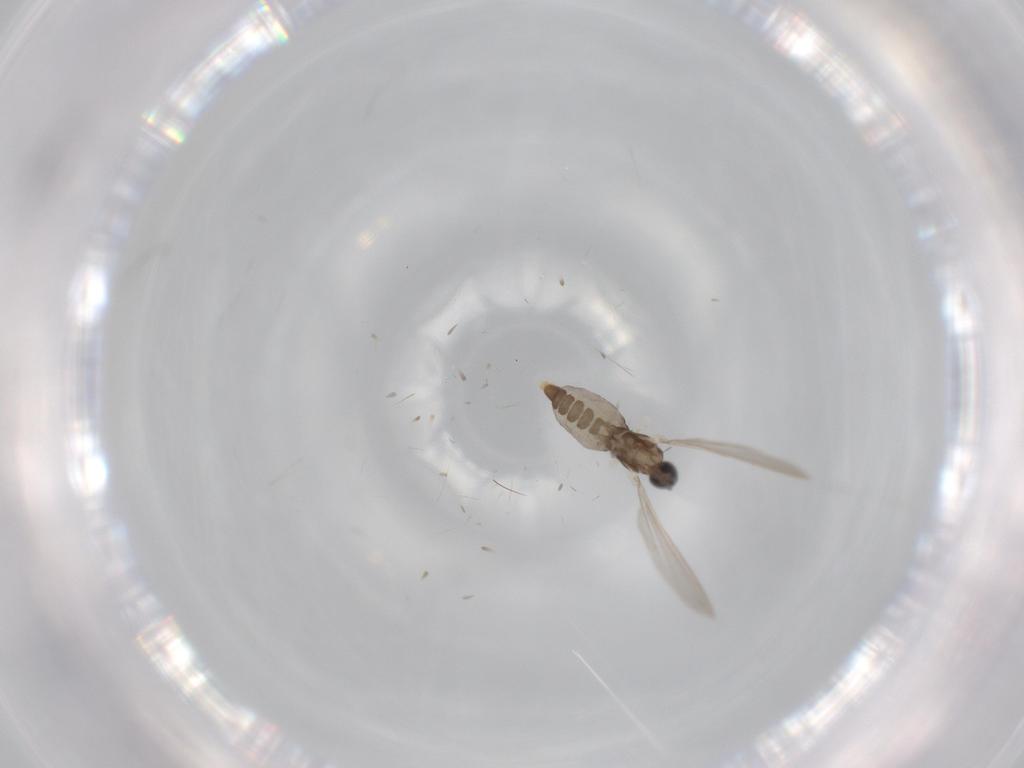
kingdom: Animalia
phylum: Arthropoda
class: Insecta
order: Diptera
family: Cecidomyiidae
